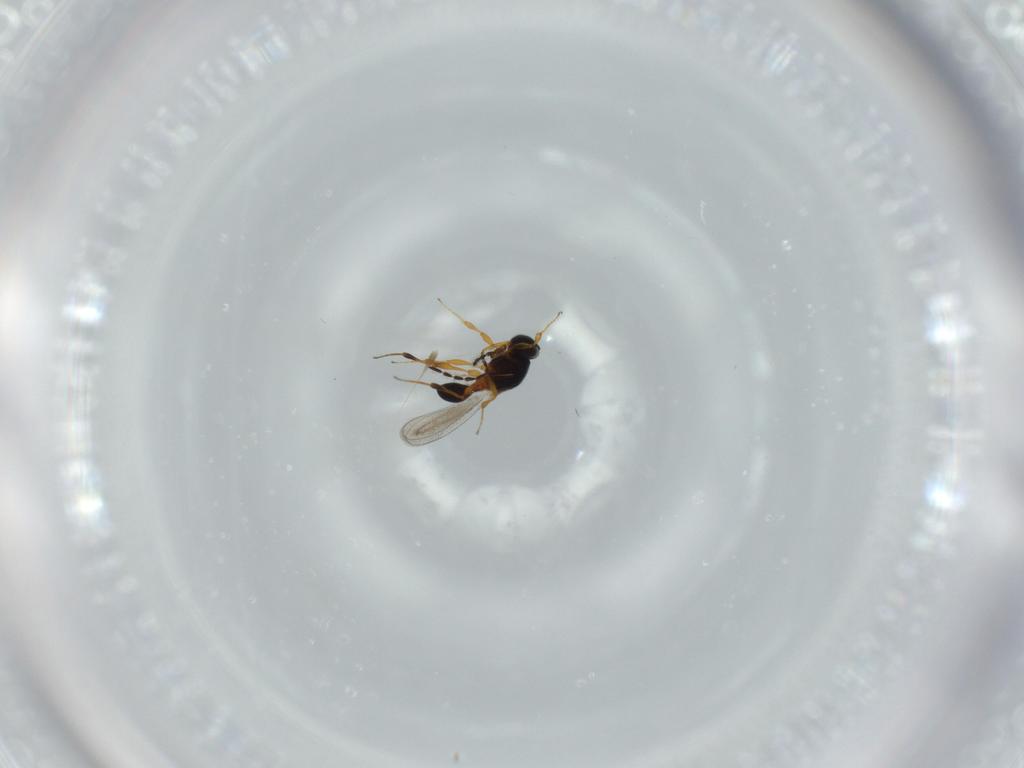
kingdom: Animalia
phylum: Arthropoda
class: Insecta
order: Hymenoptera
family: Platygastridae
